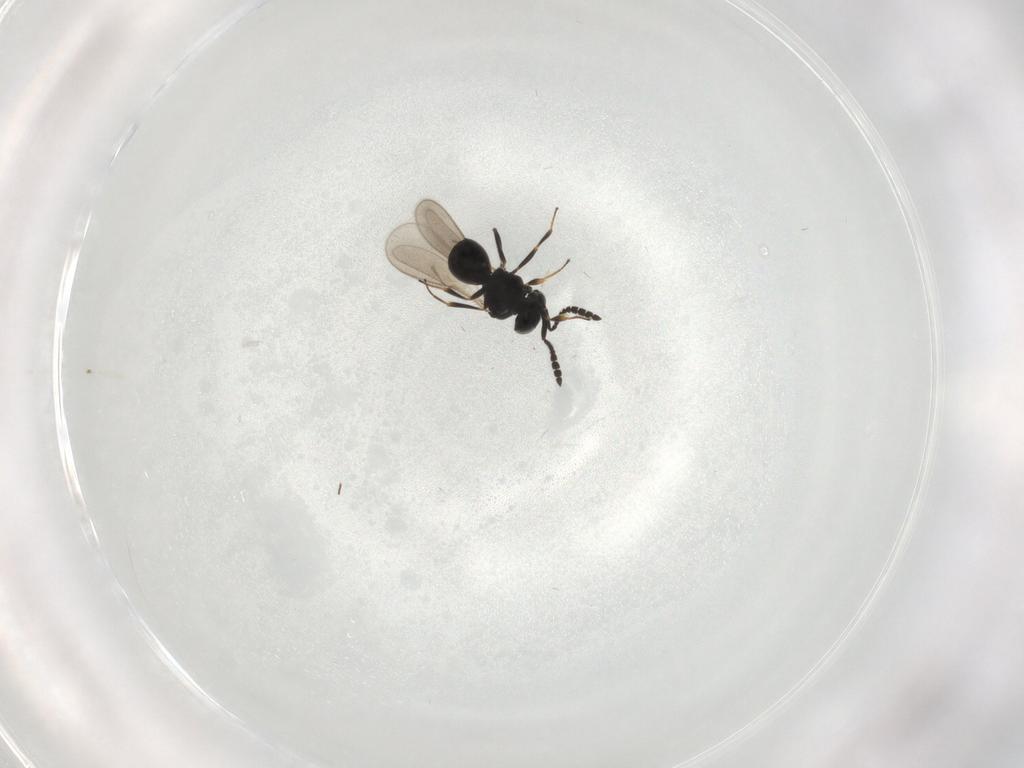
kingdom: Animalia
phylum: Arthropoda
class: Insecta
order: Hymenoptera
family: Scelionidae
